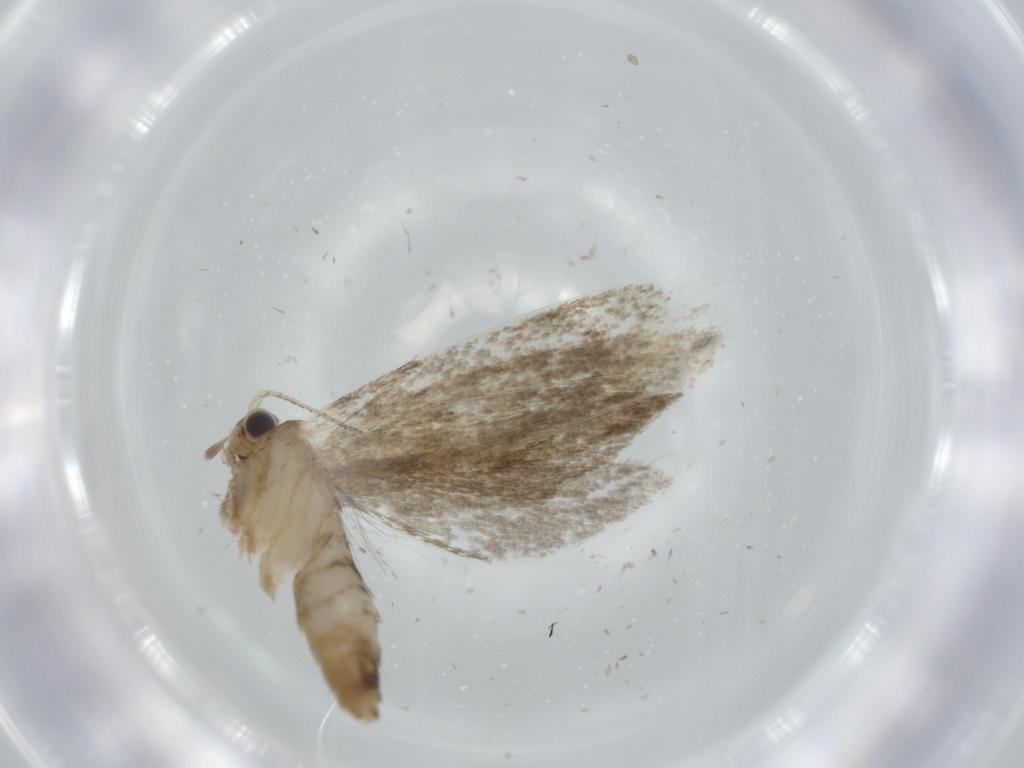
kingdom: Animalia
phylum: Arthropoda
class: Insecta
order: Lepidoptera
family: Tineidae
